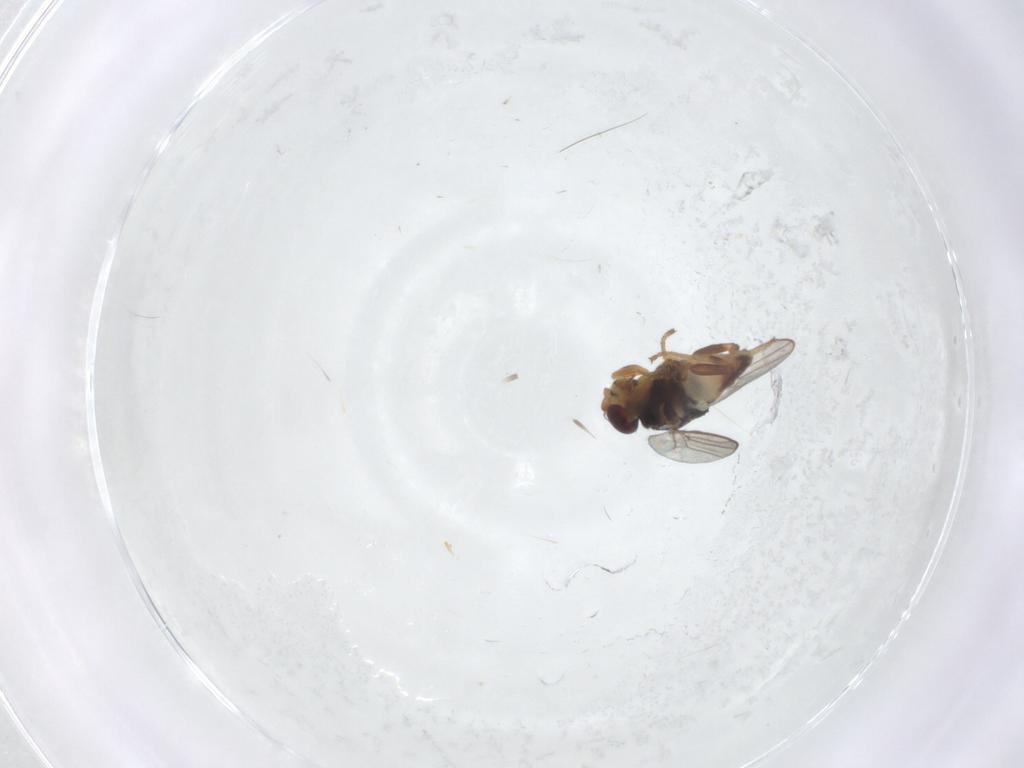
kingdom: Animalia
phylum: Arthropoda
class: Insecta
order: Diptera
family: Chloropidae
